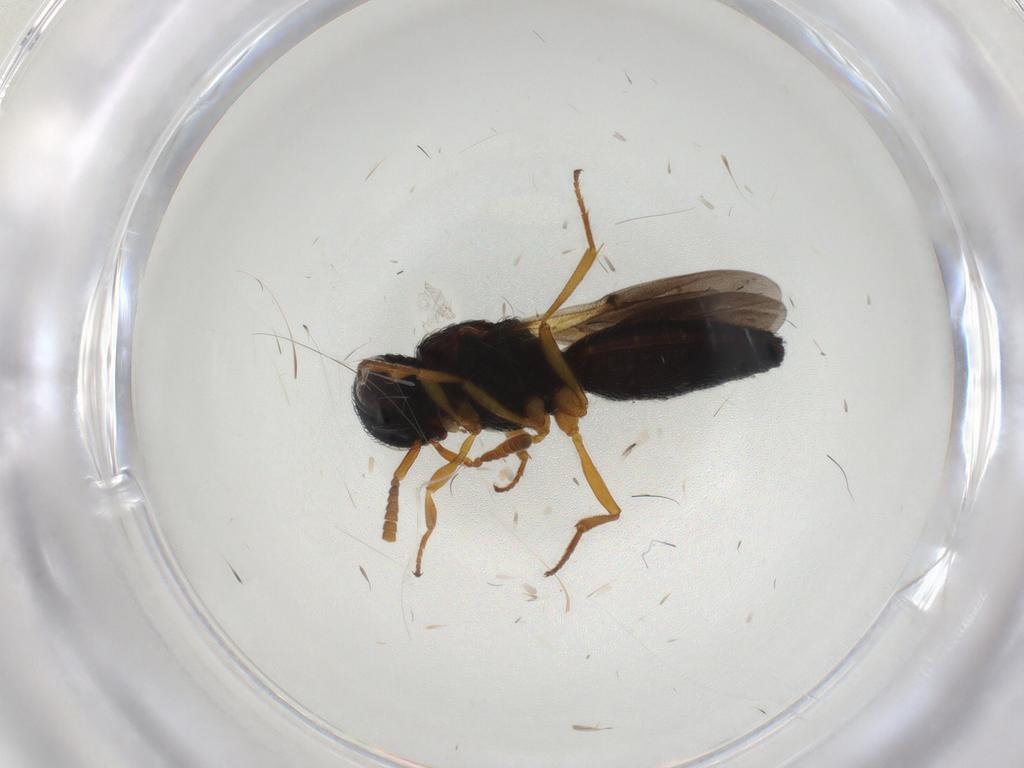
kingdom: Animalia
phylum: Arthropoda
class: Insecta
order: Hymenoptera
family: Scelionidae
